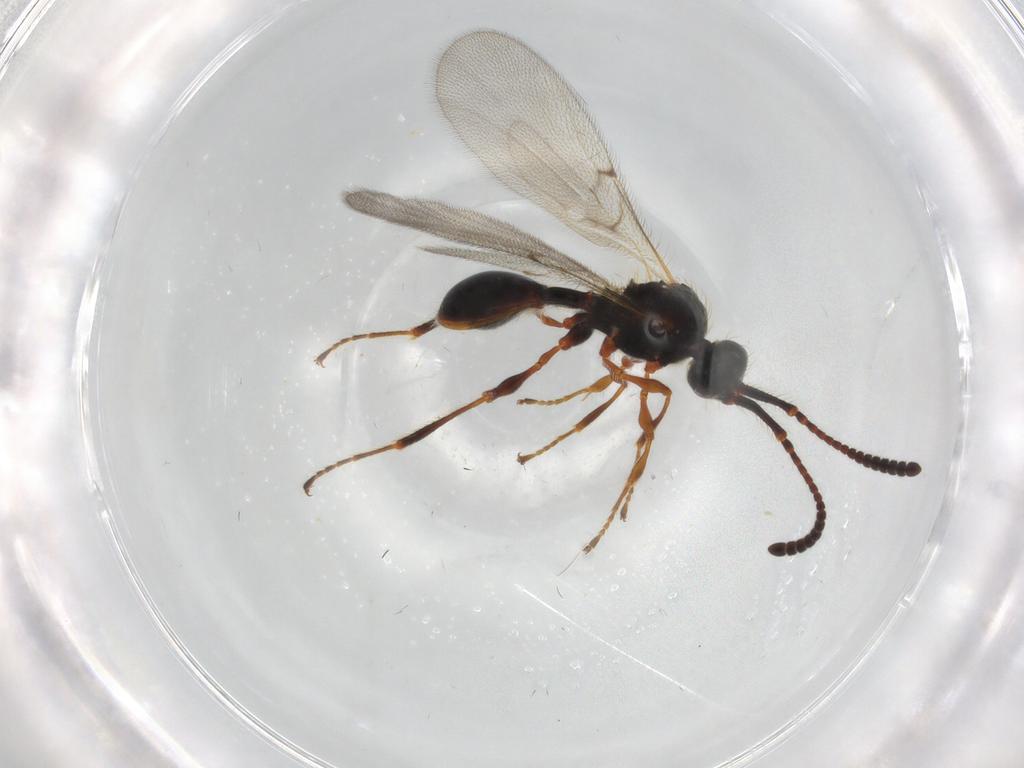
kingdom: Animalia
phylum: Arthropoda
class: Insecta
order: Hymenoptera
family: Diapriidae
